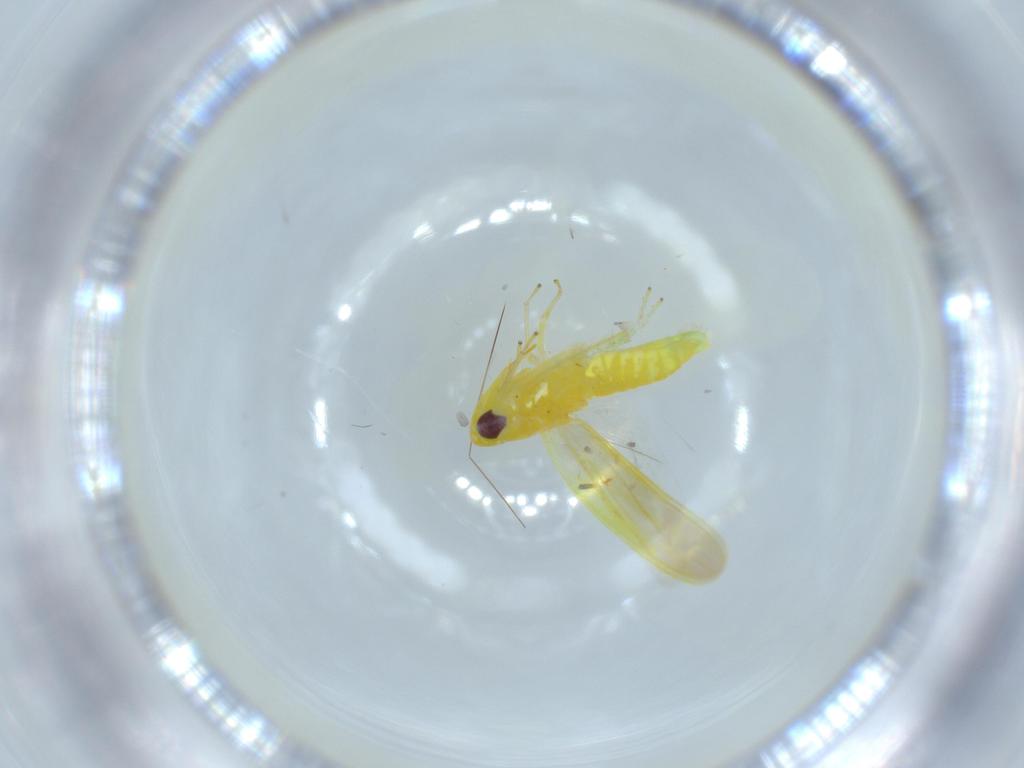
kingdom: Animalia
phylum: Arthropoda
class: Insecta
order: Hemiptera
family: Cicadellidae
